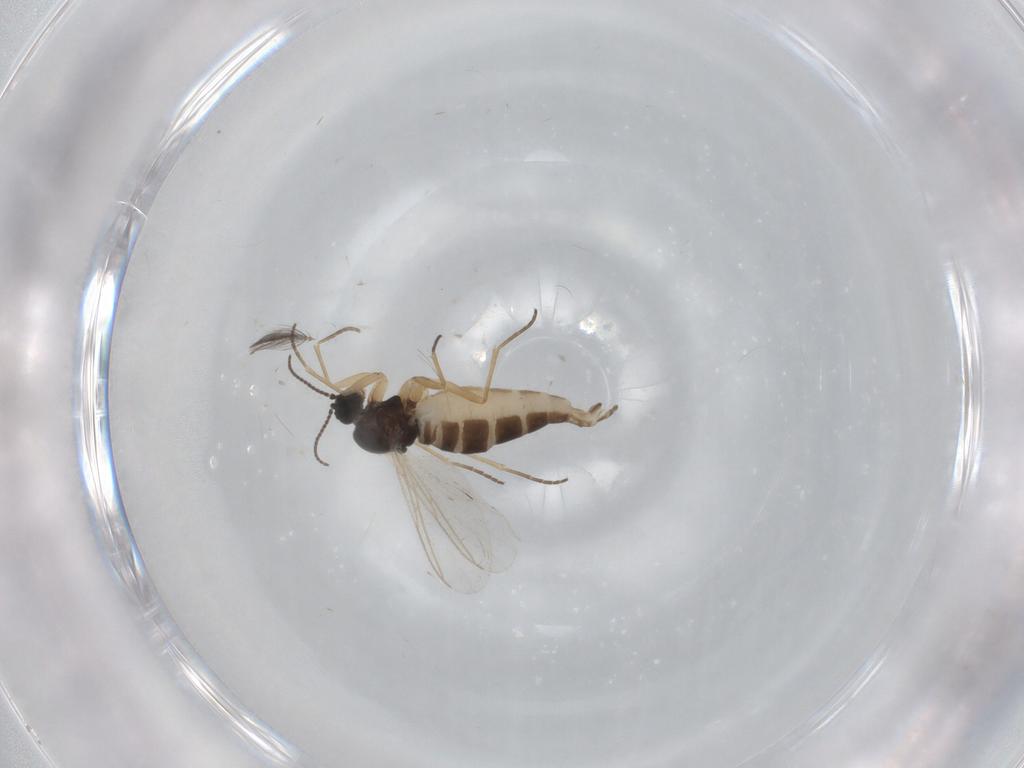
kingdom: Animalia
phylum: Arthropoda
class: Insecta
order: Diptera
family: Sciaridae
